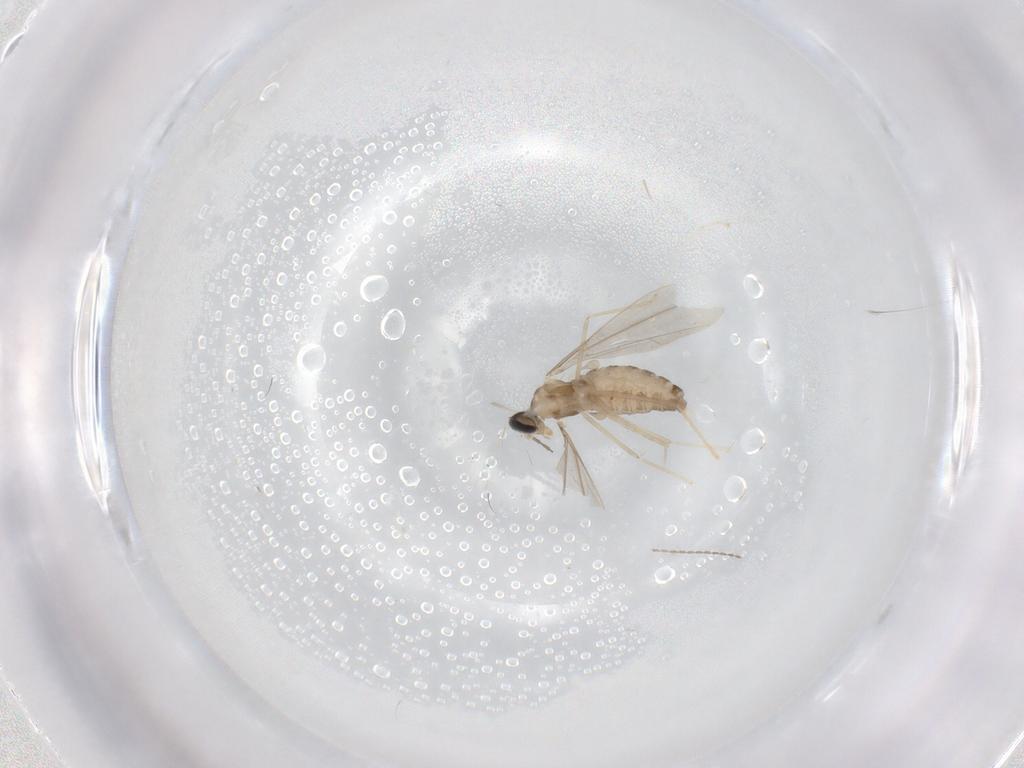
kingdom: Animalia
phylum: Arthropoda
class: Insecta
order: Diptera
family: Cecidomyiidae
